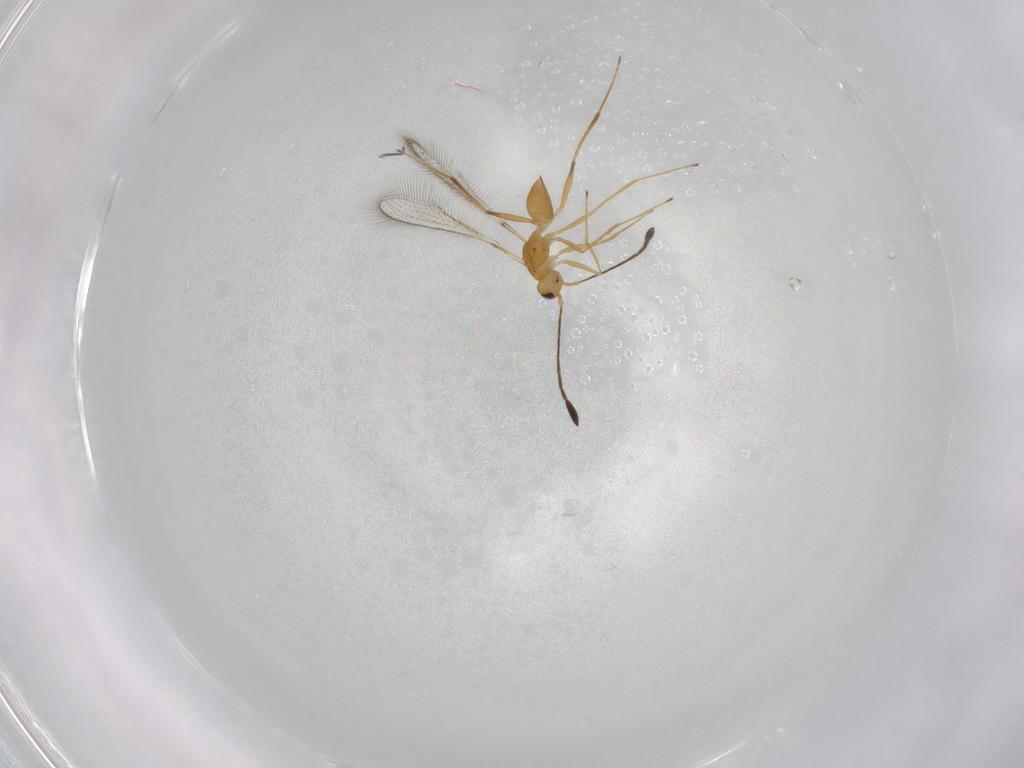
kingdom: Animalia
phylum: Arthropoda
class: Insecta
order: Hymenoptera
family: Mymaridae
